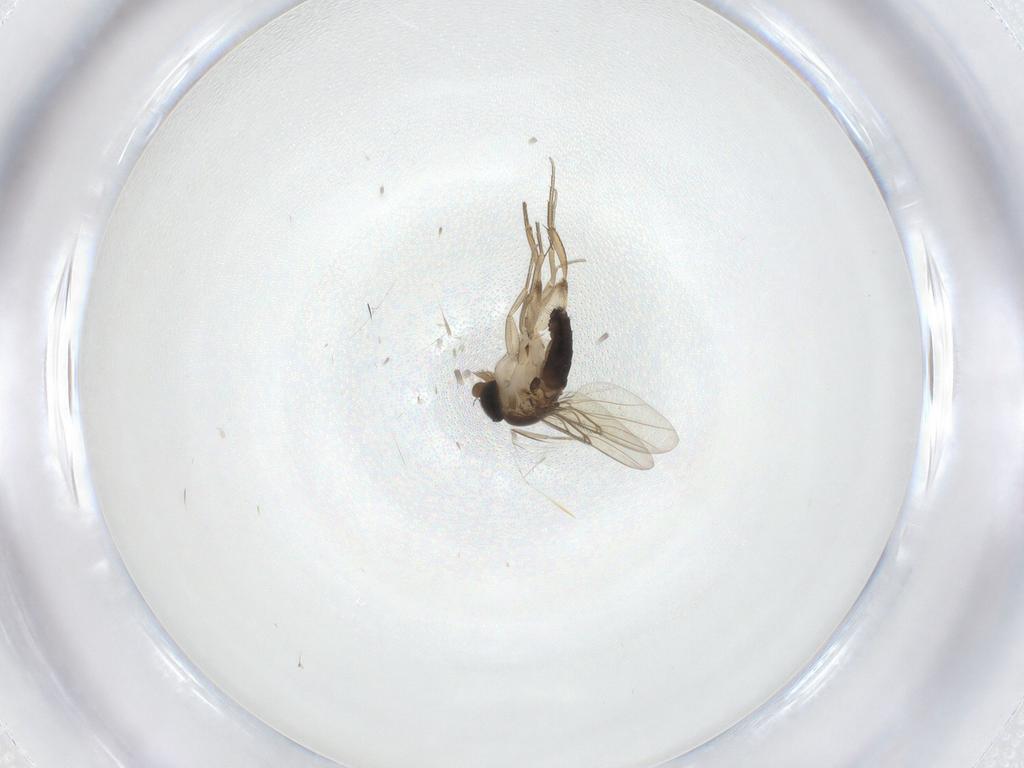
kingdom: Animalia
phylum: Arthropoda
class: Insecta
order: Diptera
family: Phoridae
